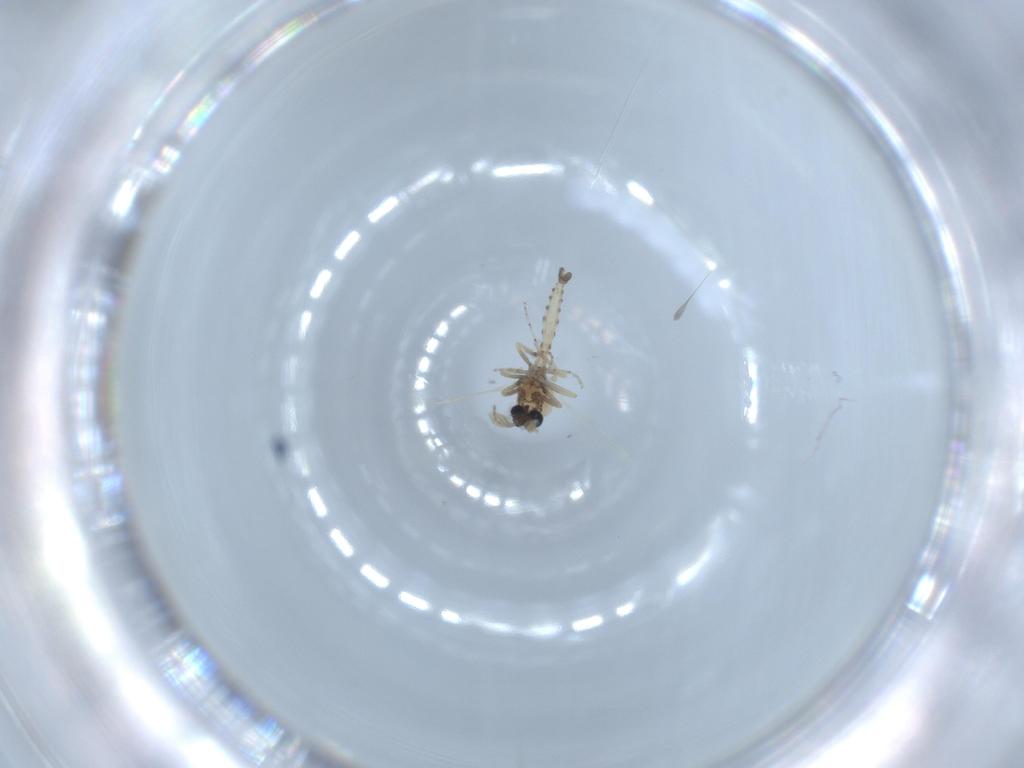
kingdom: Animalia
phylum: Arthropoda
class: Insecta
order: Diptera
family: Ceratopogonidae
